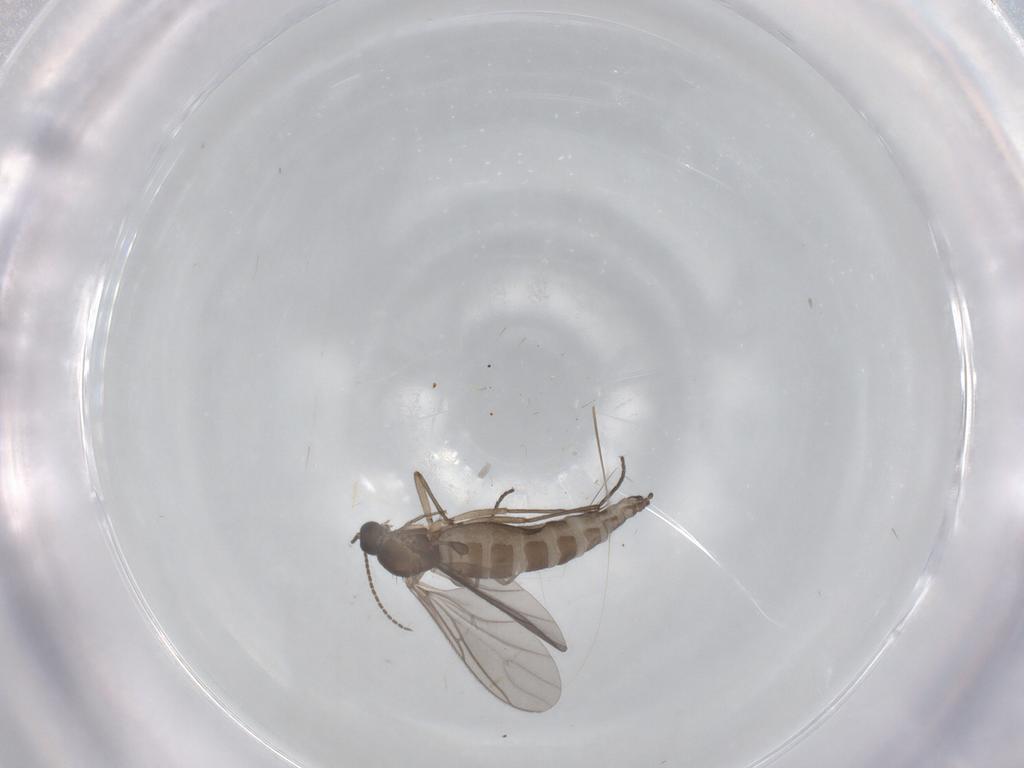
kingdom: Animalia
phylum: Arthropoda
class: Insecta
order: Diptera
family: Sciaridae
